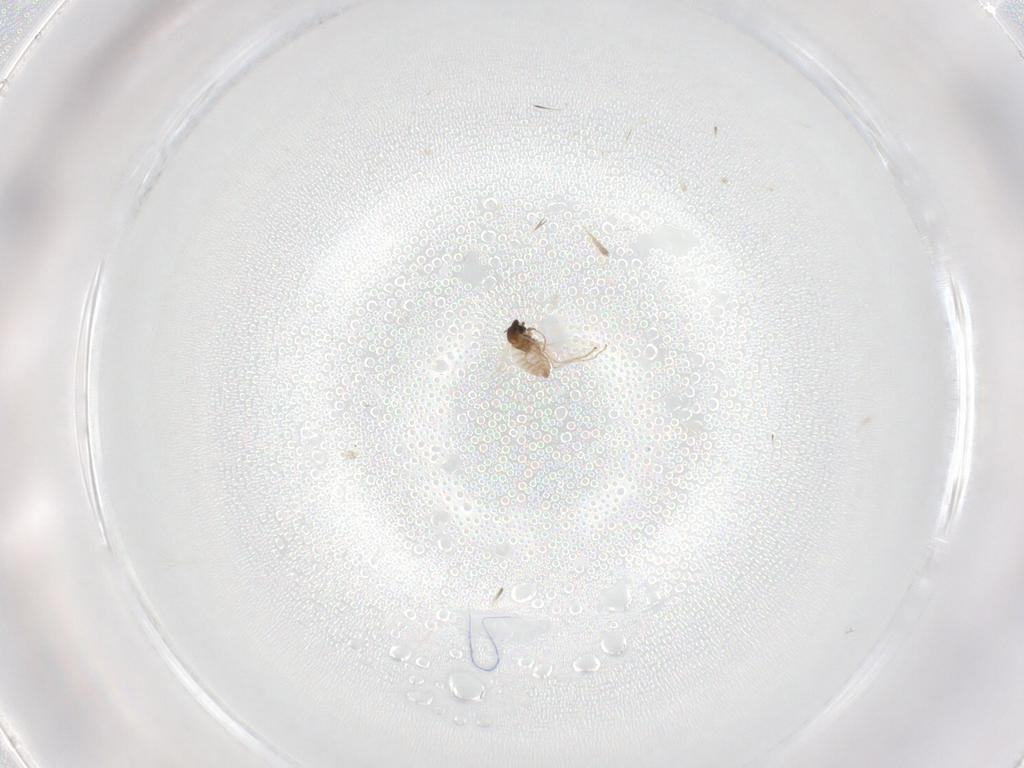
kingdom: Animalia
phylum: Arthropoda
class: Insecta
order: Diptera
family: Cecidomyiidae
